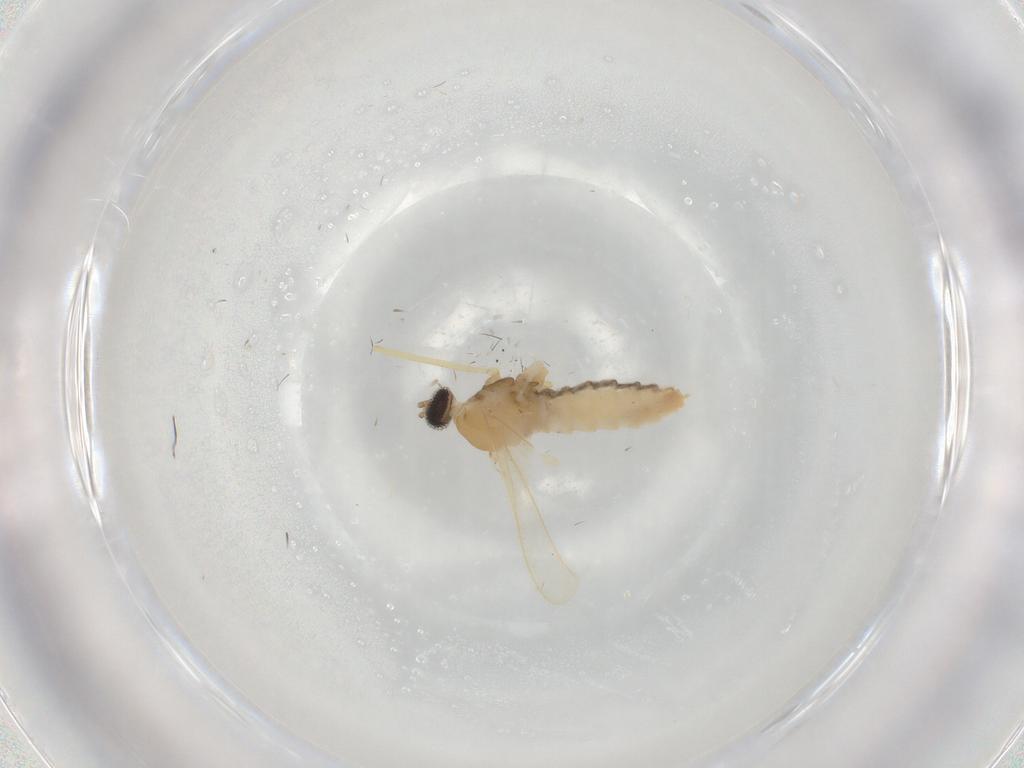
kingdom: Animalia
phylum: Arthropoda
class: Insecta
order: Diptera
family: Cecidomyiidae
